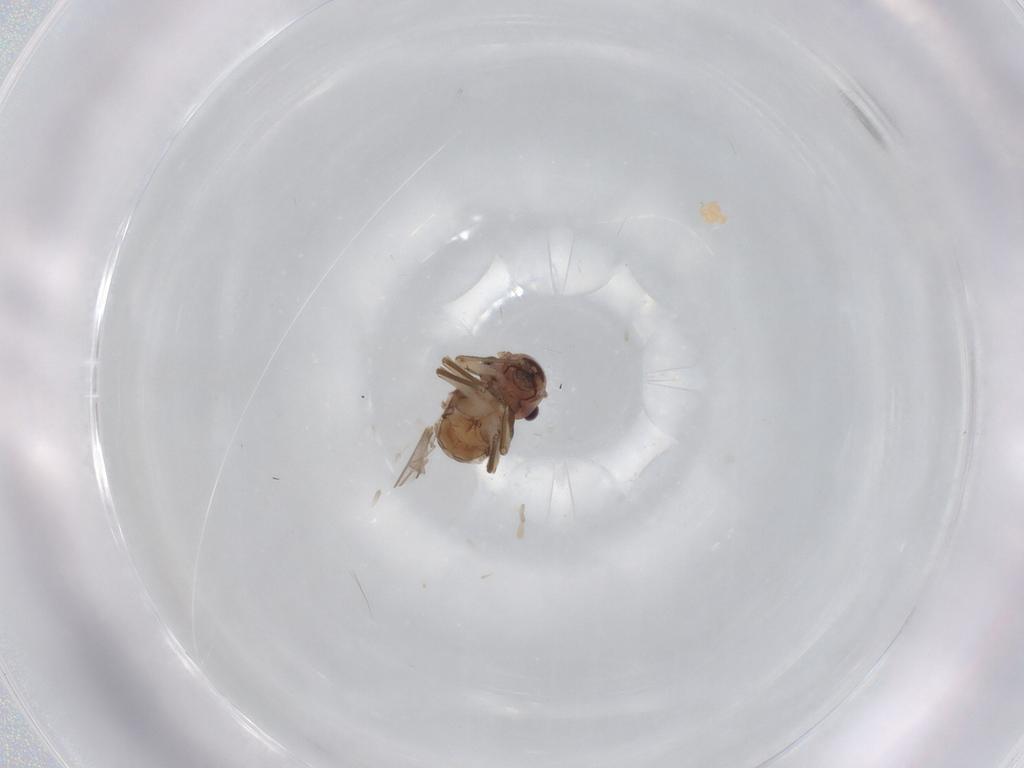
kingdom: Animalia
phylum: Arthropoda
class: Insecta
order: Psocodea
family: Peripsocidae
